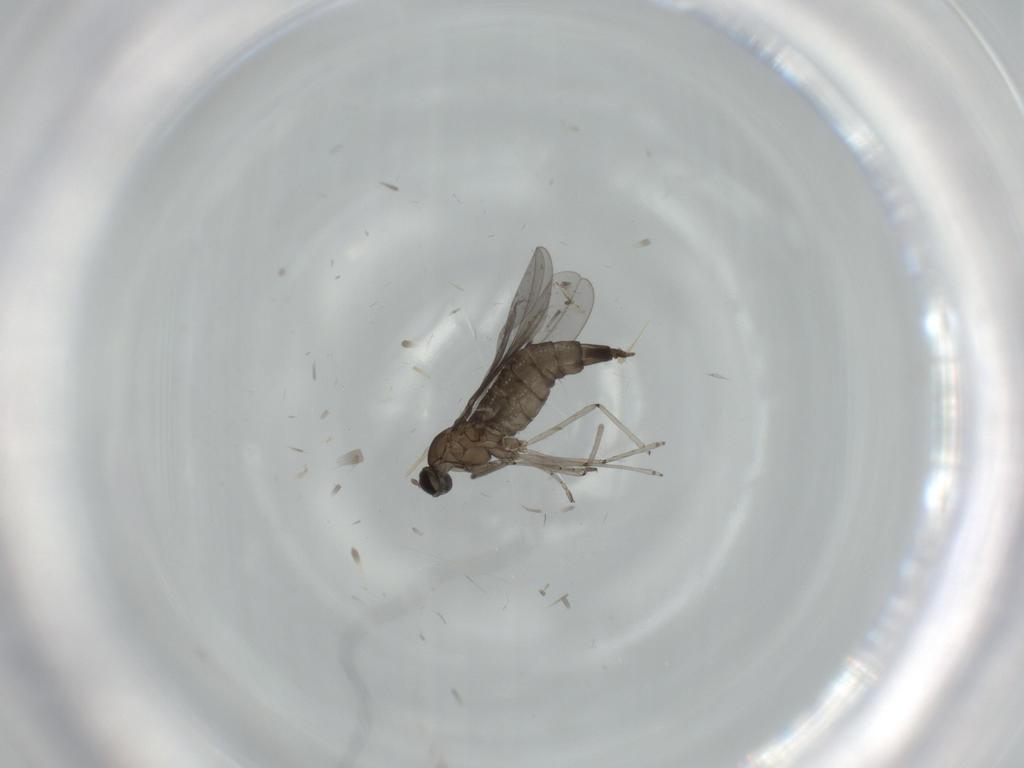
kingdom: Animalia
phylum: Arthropoda
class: Insecta
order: Diptera
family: Cecidomyiidae
